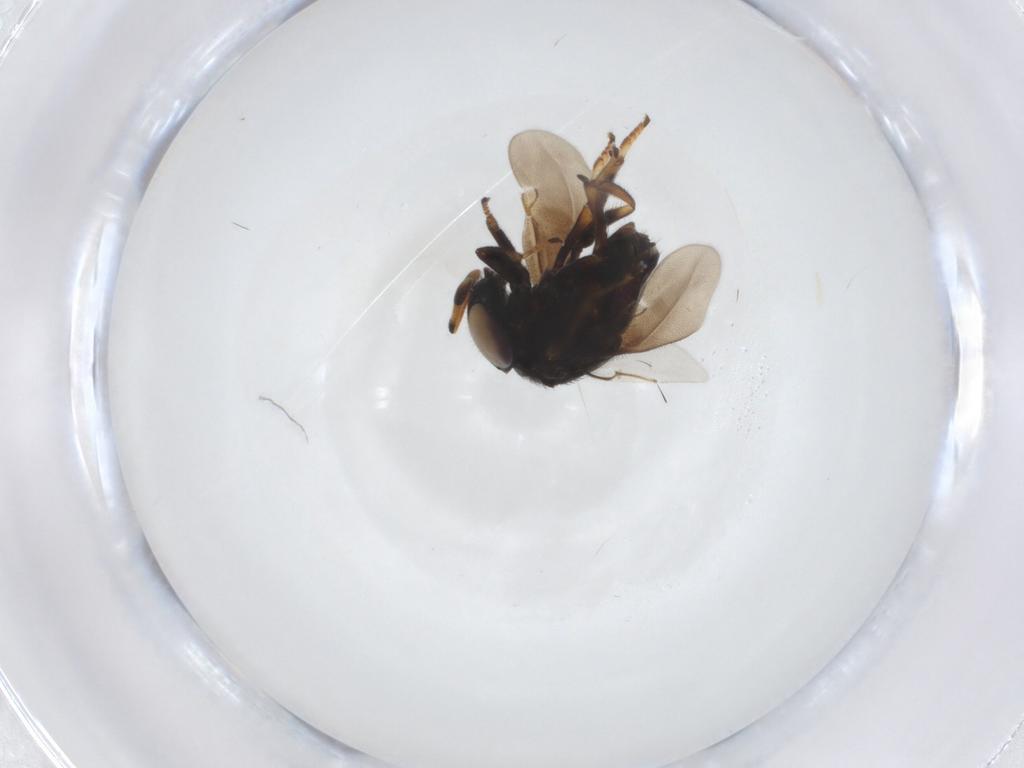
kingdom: Animalia
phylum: Arthropoda
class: Insecta
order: Hymenoptera
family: Encyrtidae
